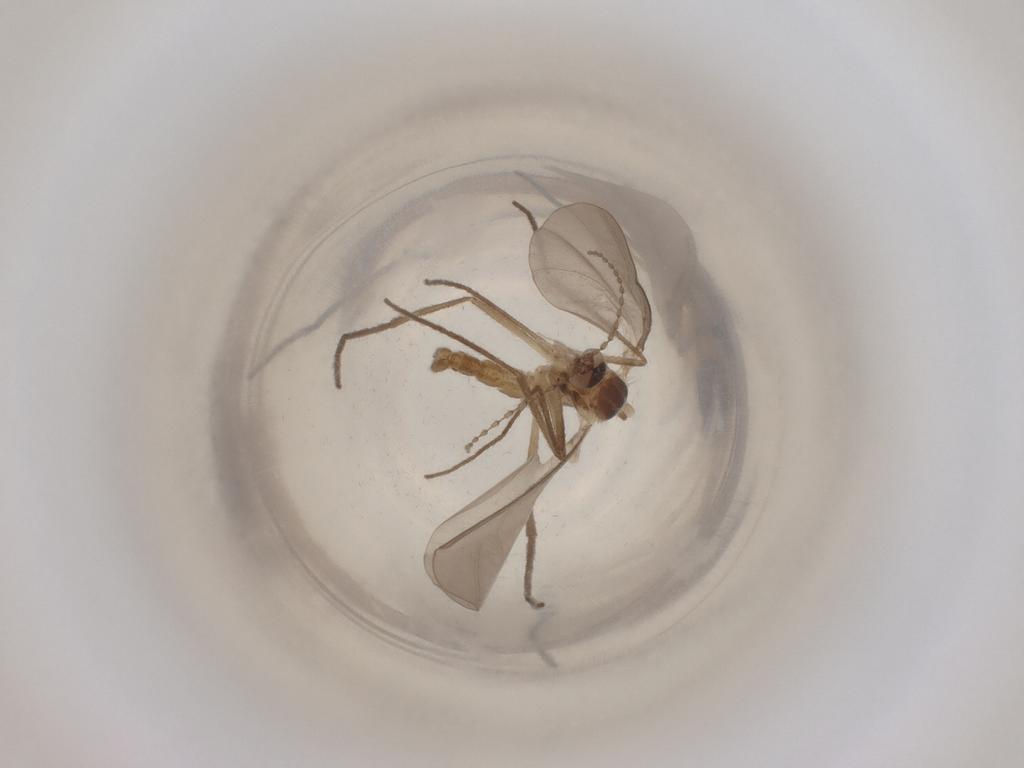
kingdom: Animalia
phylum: Arthropoda
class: Insecta
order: Diptera
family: Cecidomyiidae
